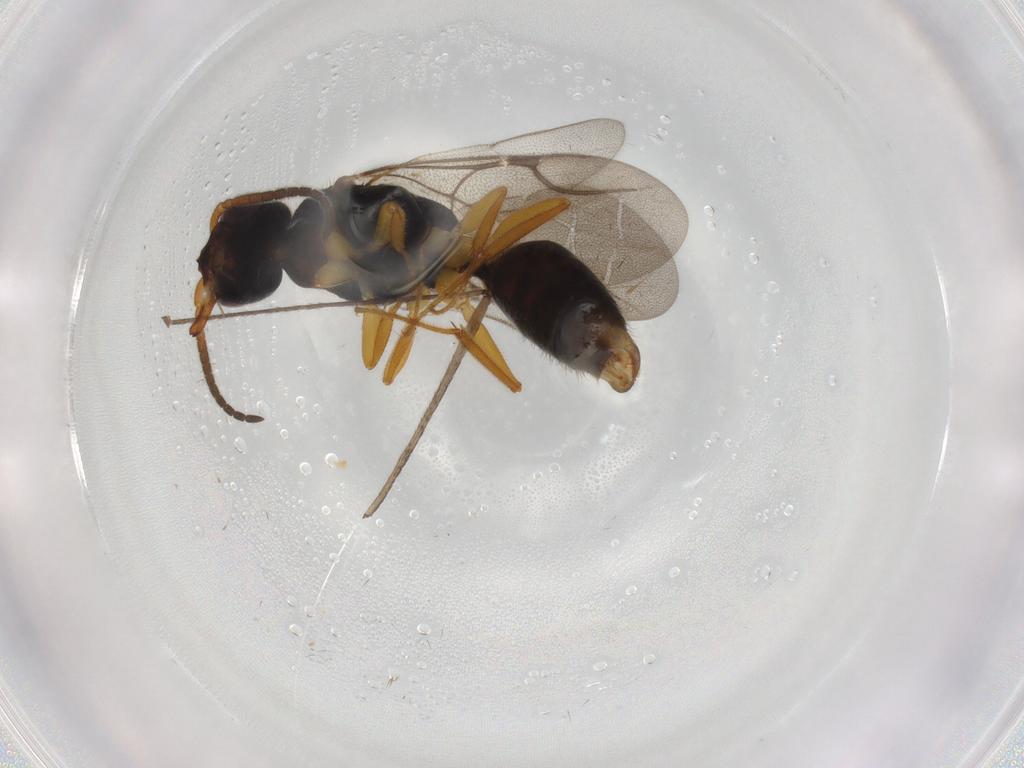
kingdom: Animalia
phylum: Arthropoda
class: Insecta
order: Hymenoptera
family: Bethylidae
